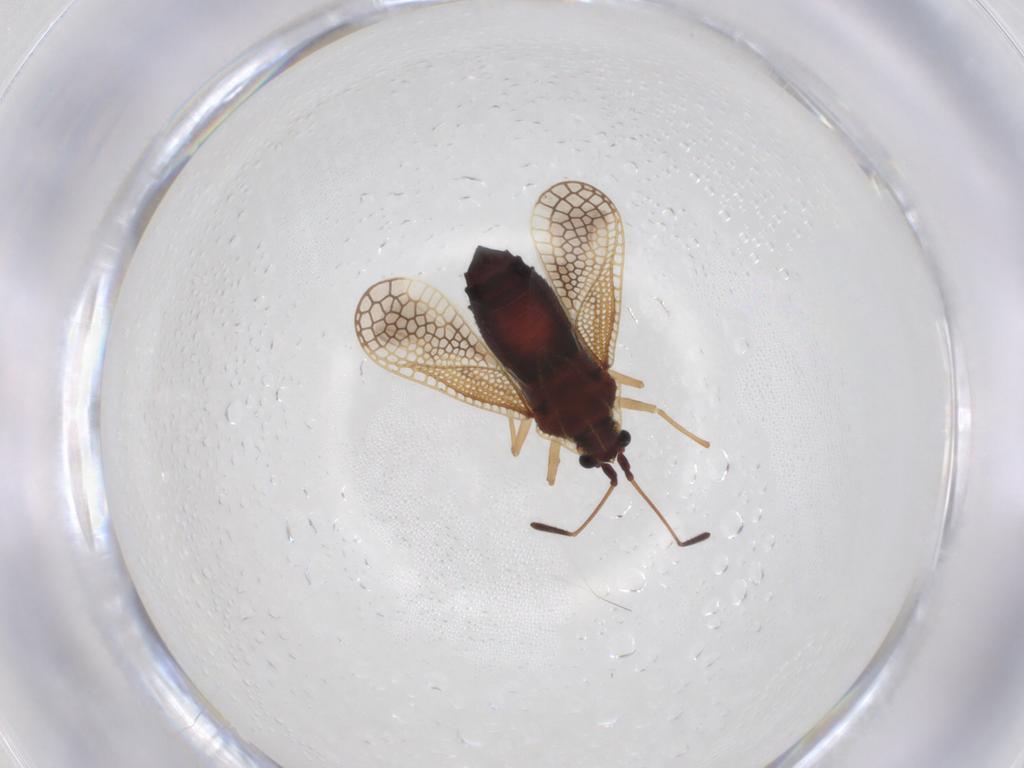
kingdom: Animalia
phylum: Arthropoda
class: Insecta
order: Hemiptera
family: Tingidae
